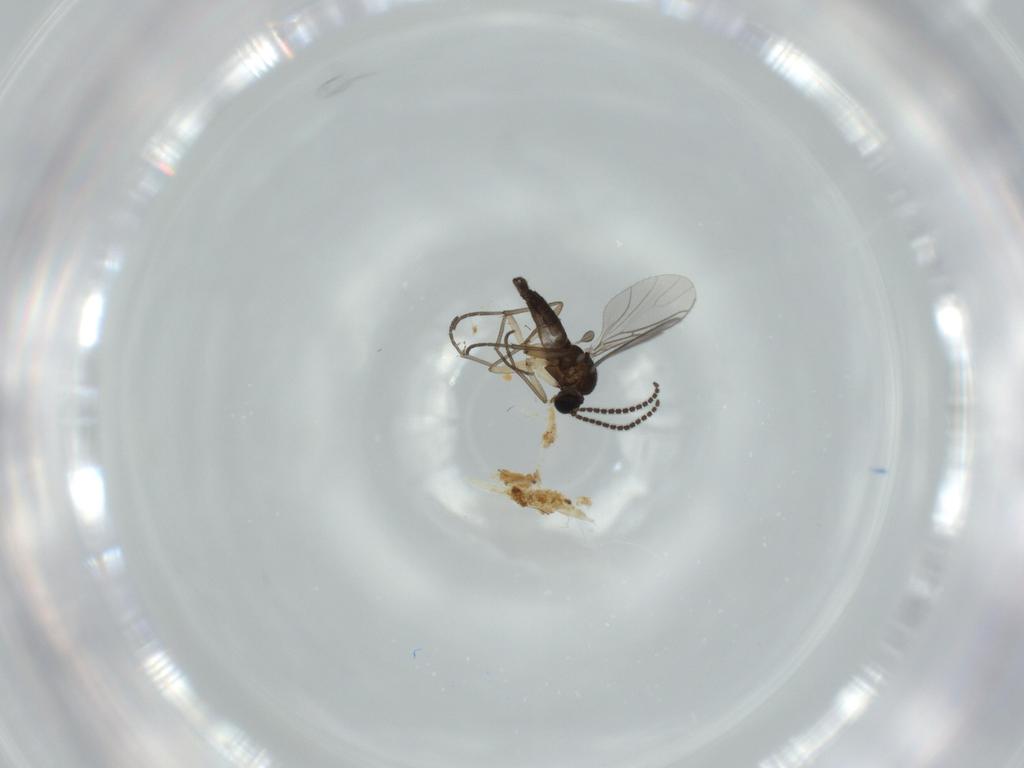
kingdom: Animalia
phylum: Arthropoda
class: Insecta
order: Diptera
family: Sciaridae
